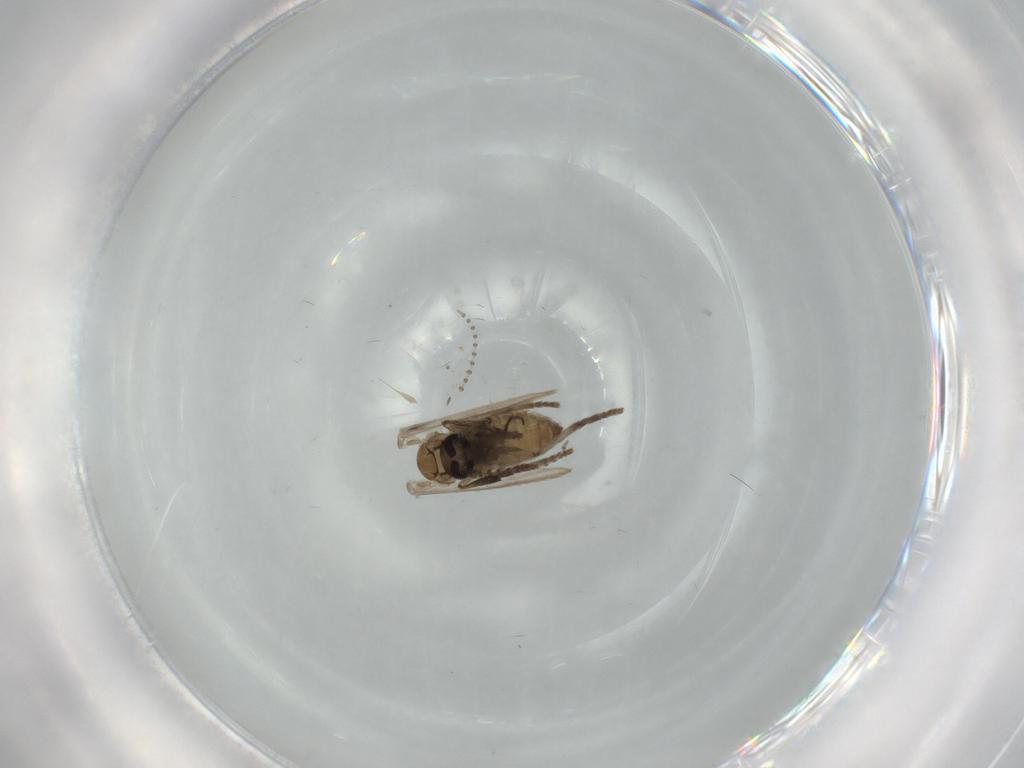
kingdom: Animalia
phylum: Arthropoda
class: Insecta
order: Diptera
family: Psychodidae
